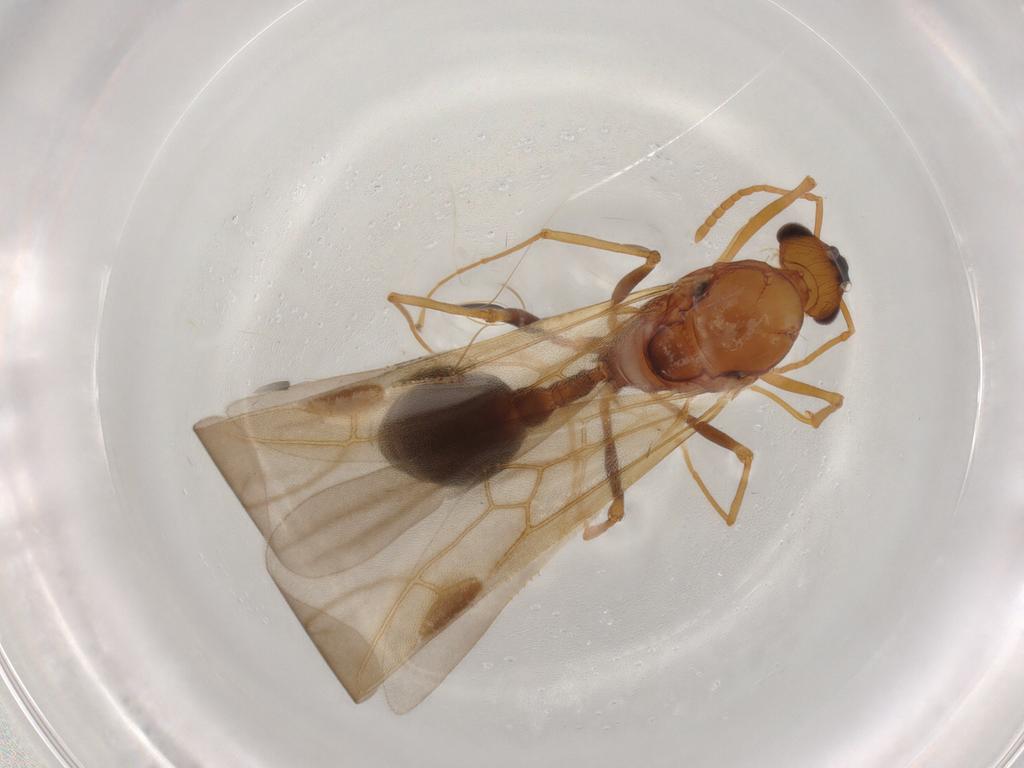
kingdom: Animalia
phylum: Arthropoda
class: Insecta
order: Hymenoptera
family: Formicidae
